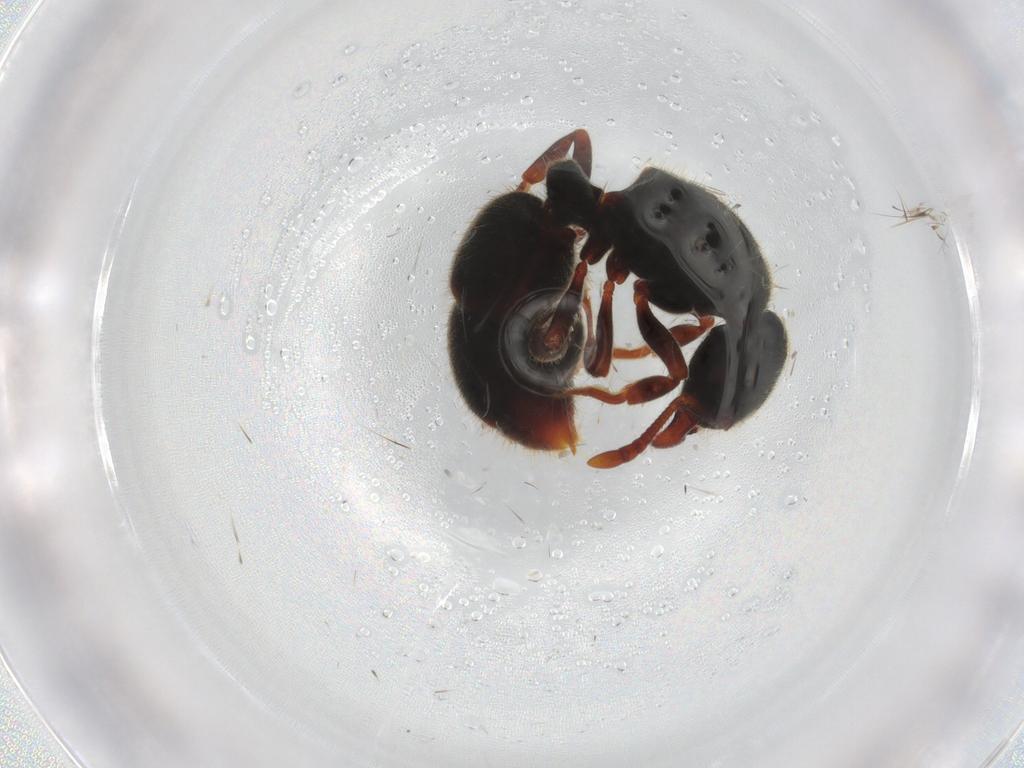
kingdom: Animalia
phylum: Arthropoda
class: Insecta
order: Hymenoptera
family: Formicidae
